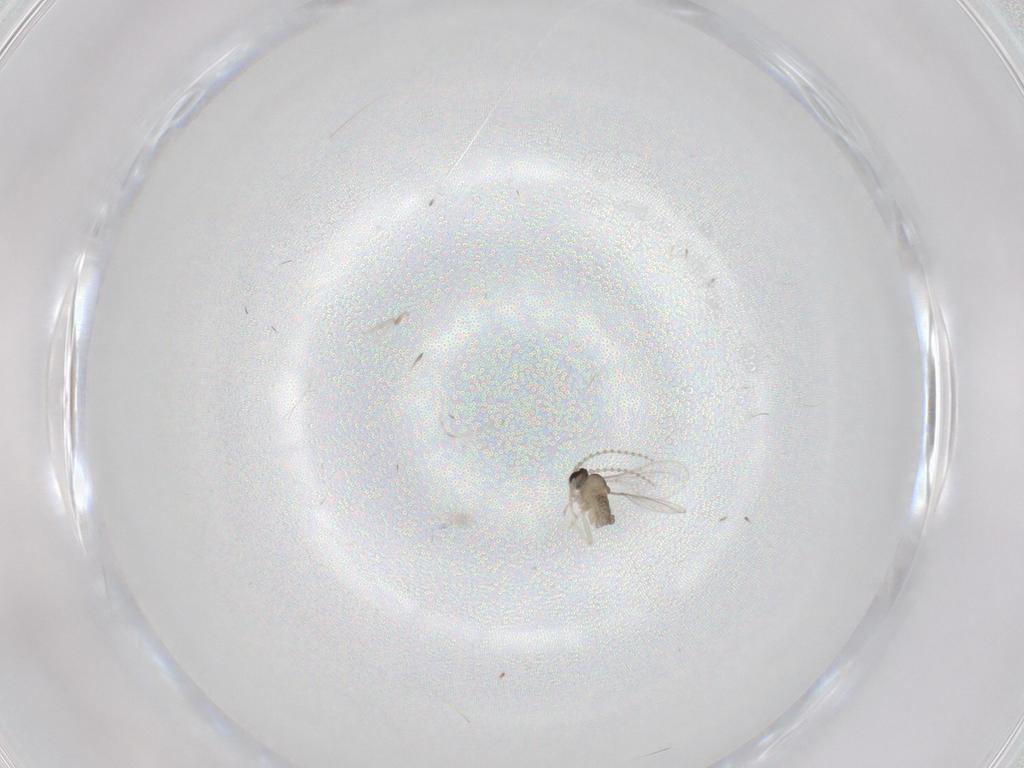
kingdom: Animalia
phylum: Arthropoda
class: Insecta
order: Diptera
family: Cecidomyiidae
